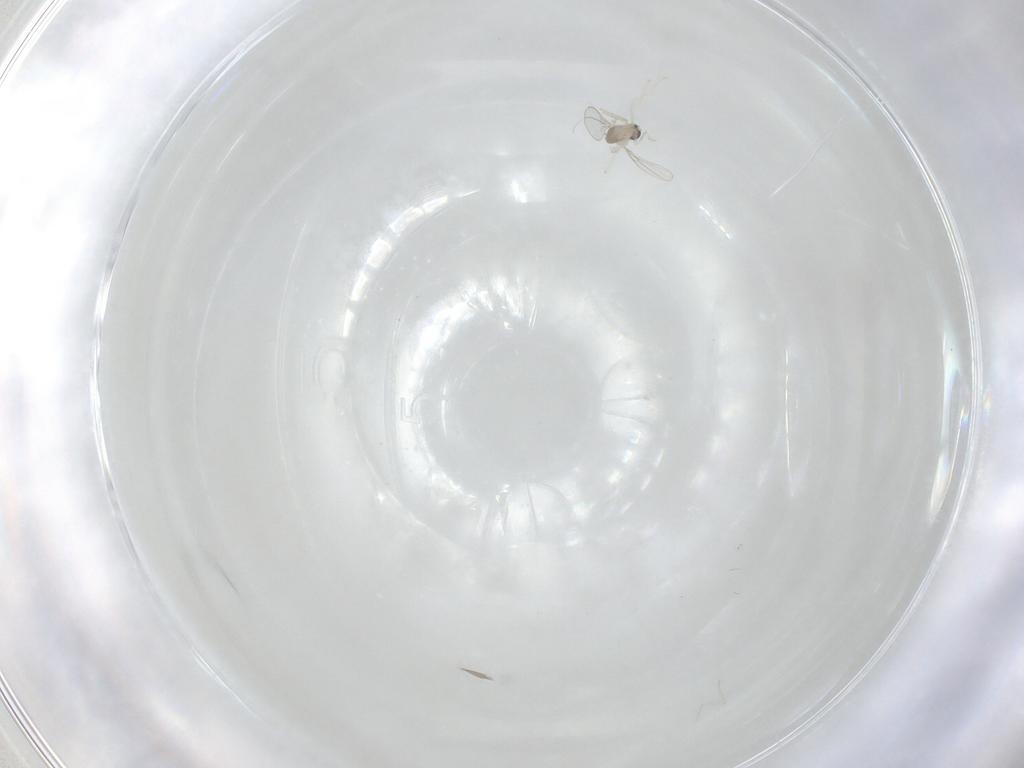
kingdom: Animalia
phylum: Arthropoda
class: Insecta
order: Diptera
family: Cecidomyiidae
